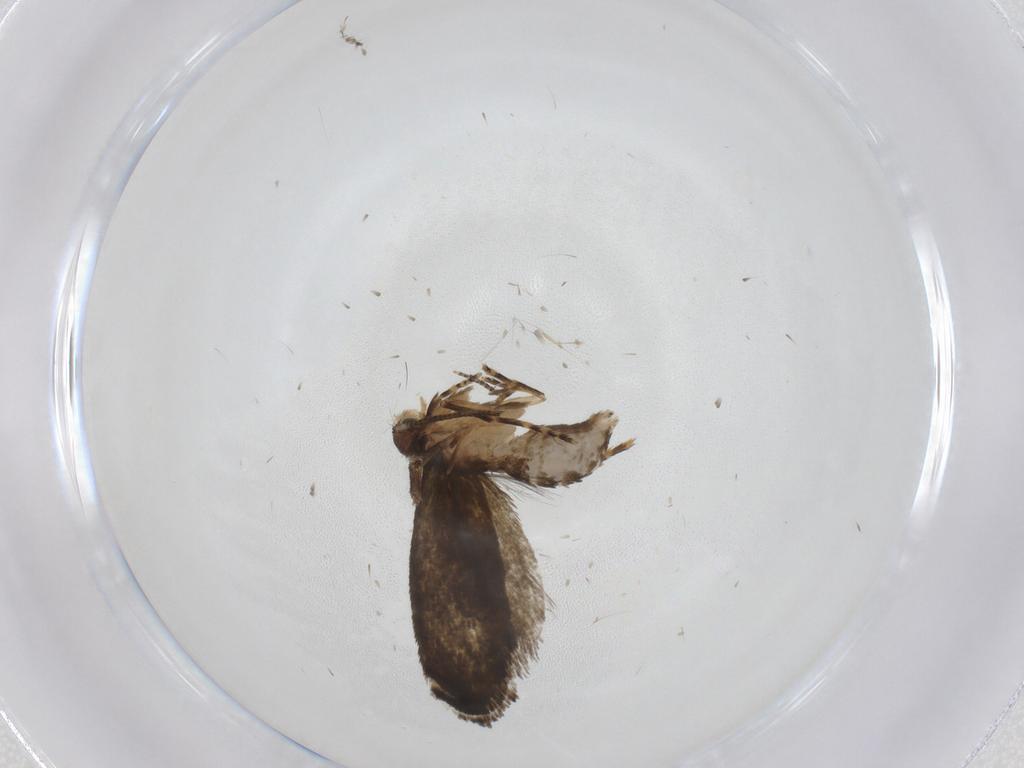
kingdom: Animalia
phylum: Arthropoda
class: Insecta
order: Lepidoptera
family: Tineidae
